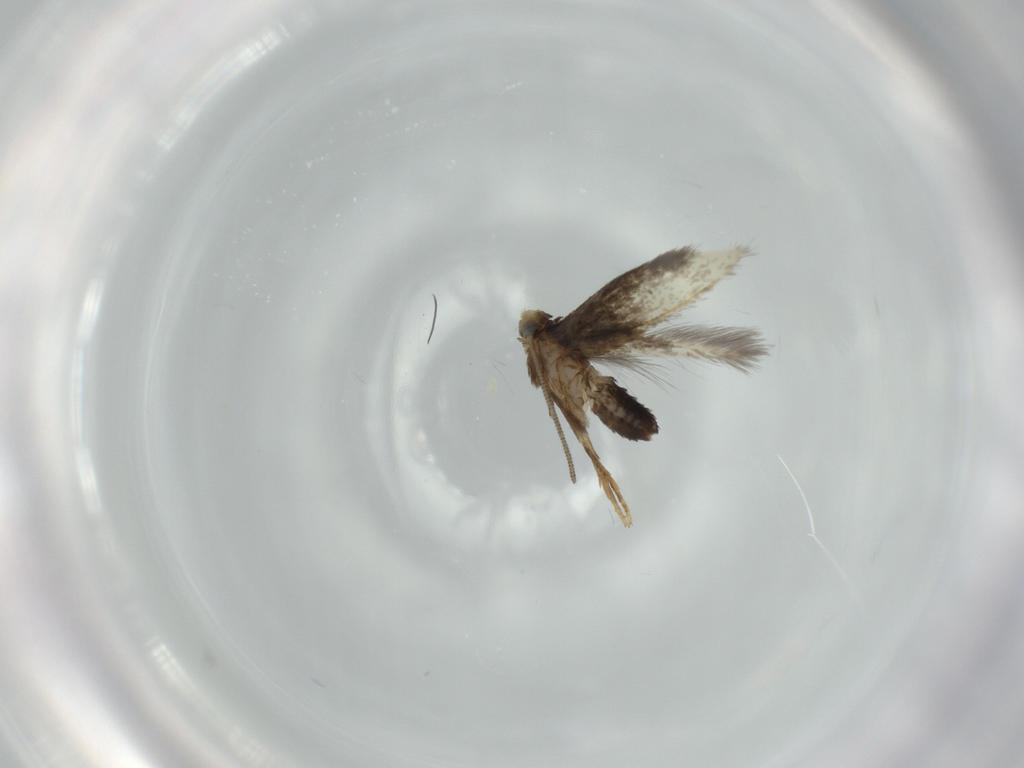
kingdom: Animalia
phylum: Arthropoda
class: Insecta
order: Lepidoptera
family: Nepticulidae
